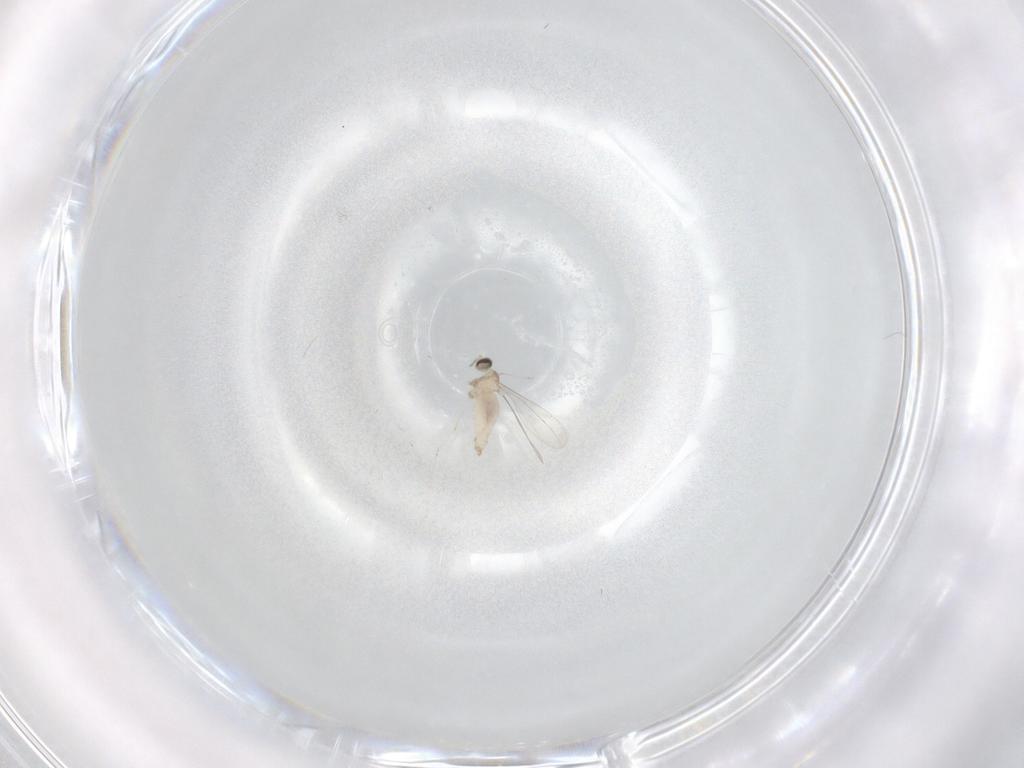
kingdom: Animalia
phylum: Arthropoda
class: Insecta
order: Diptera
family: Cecidomyiidae
